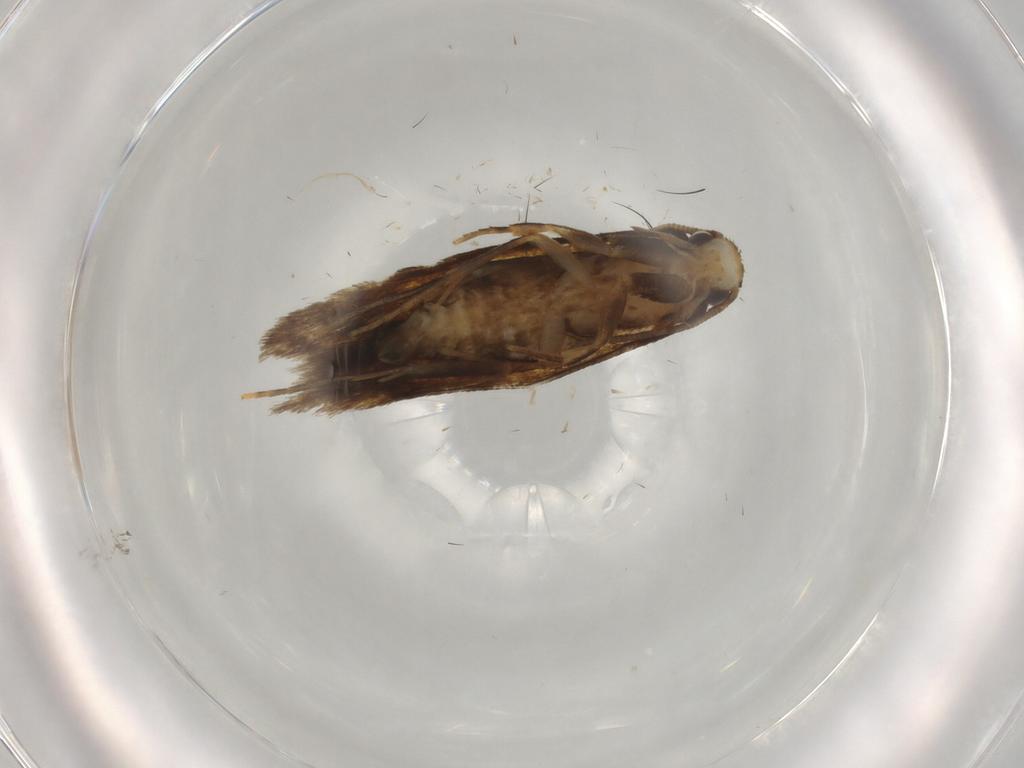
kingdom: Animalia
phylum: Arthropoda
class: Insecta
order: Lepidoptera
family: Tineidae
